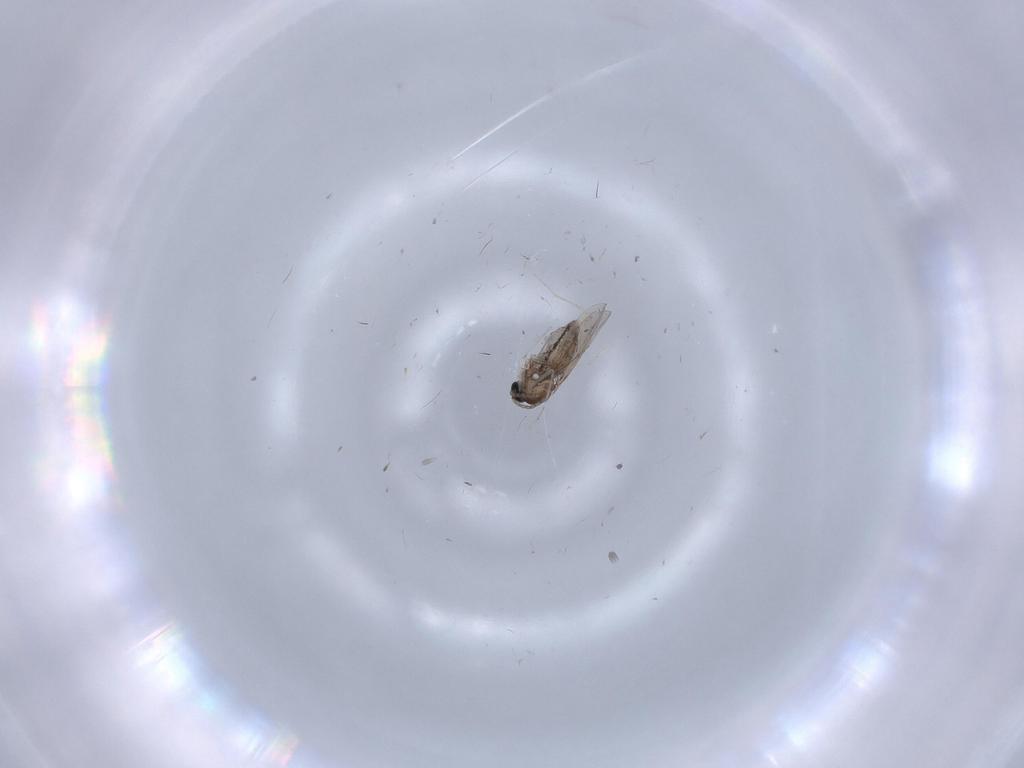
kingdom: Animalia
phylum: Arthropoda
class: Insecta
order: Diptera
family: Cecidomyiidae
